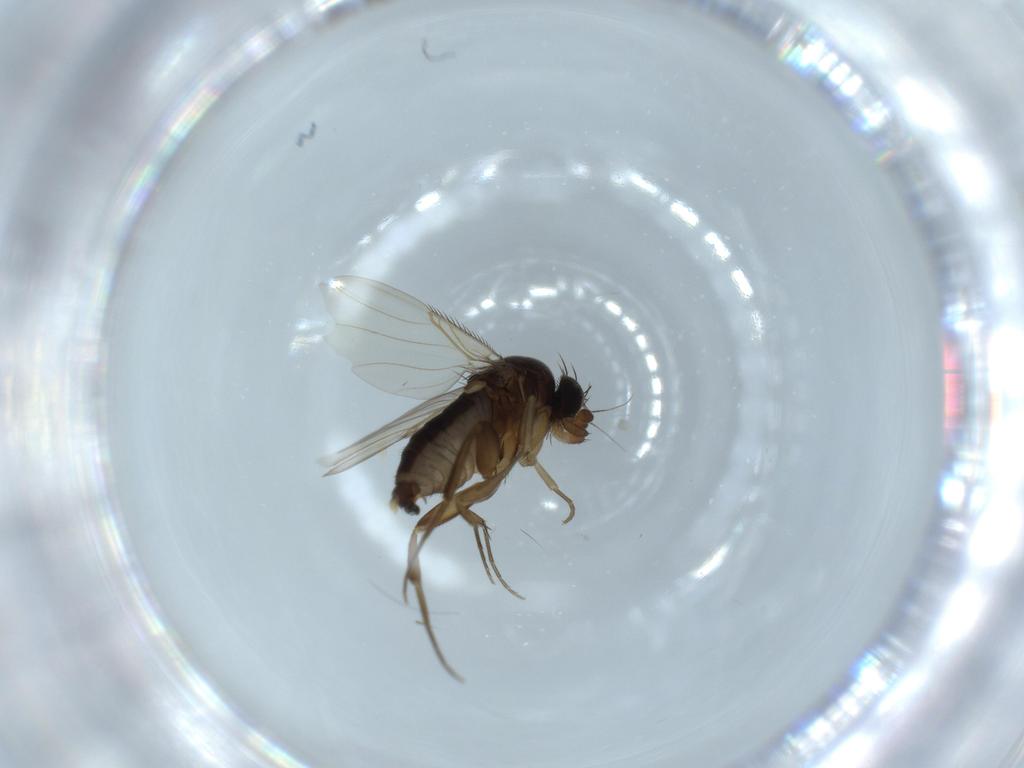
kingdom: Animalia
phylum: Arthropoda
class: Insecta
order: Diptera
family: Phoridae
